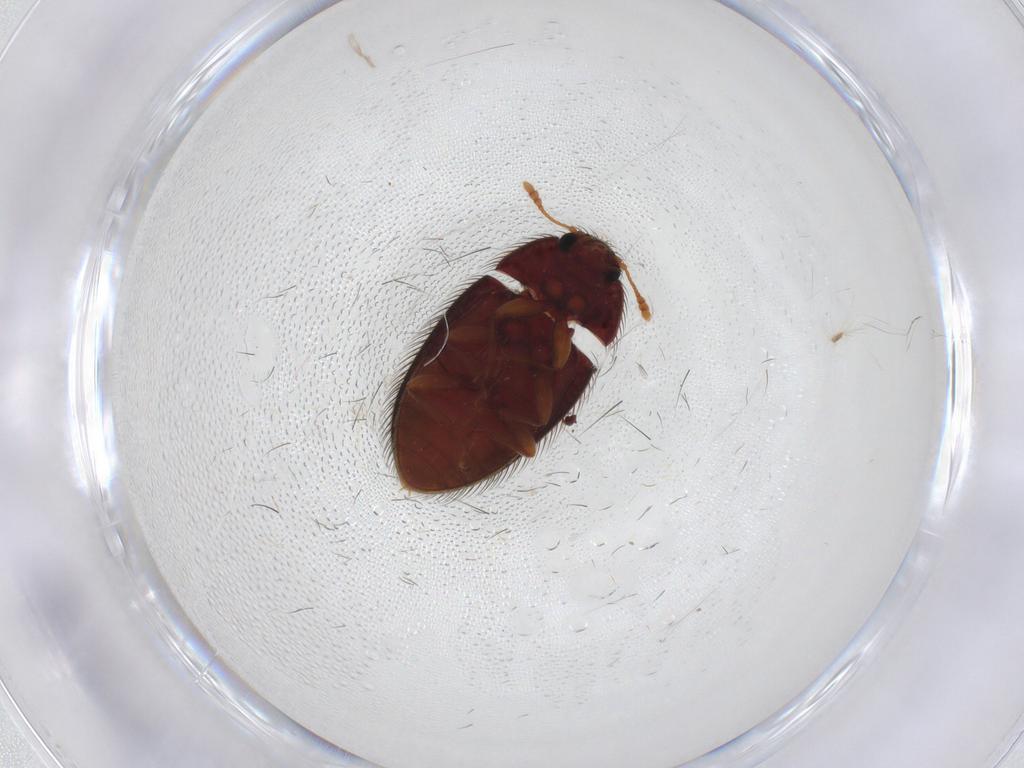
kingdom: Animalia
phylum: Arthropoda
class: Insecta
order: Coleoptera
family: Biphyllidae
